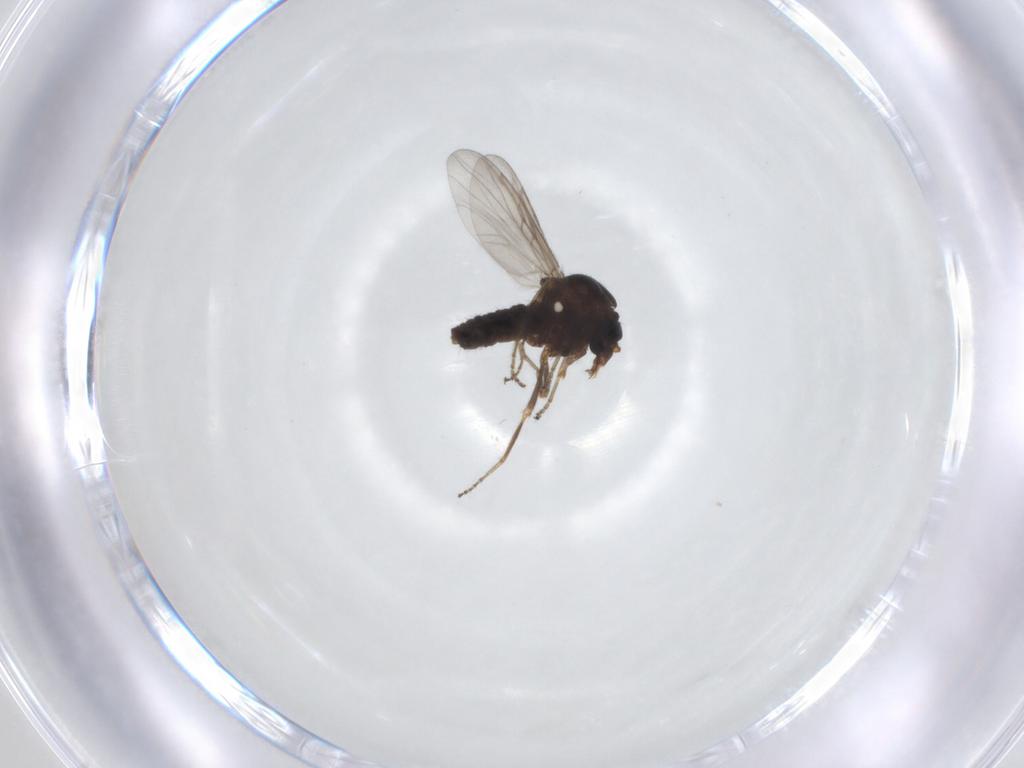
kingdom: Animalia
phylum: Arthropoda
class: Insecta
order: Diptera
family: Ceratopogonidae
